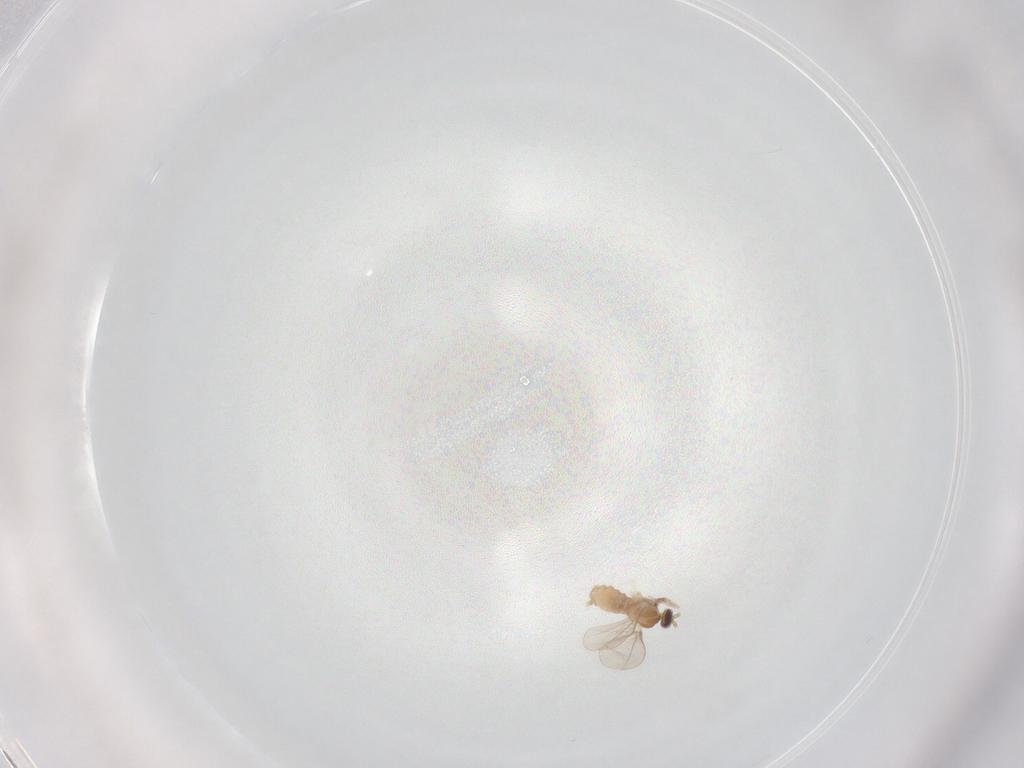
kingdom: Animalia
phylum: Arthropoda
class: Insecta
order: Diptera
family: Cecidomyiidae
